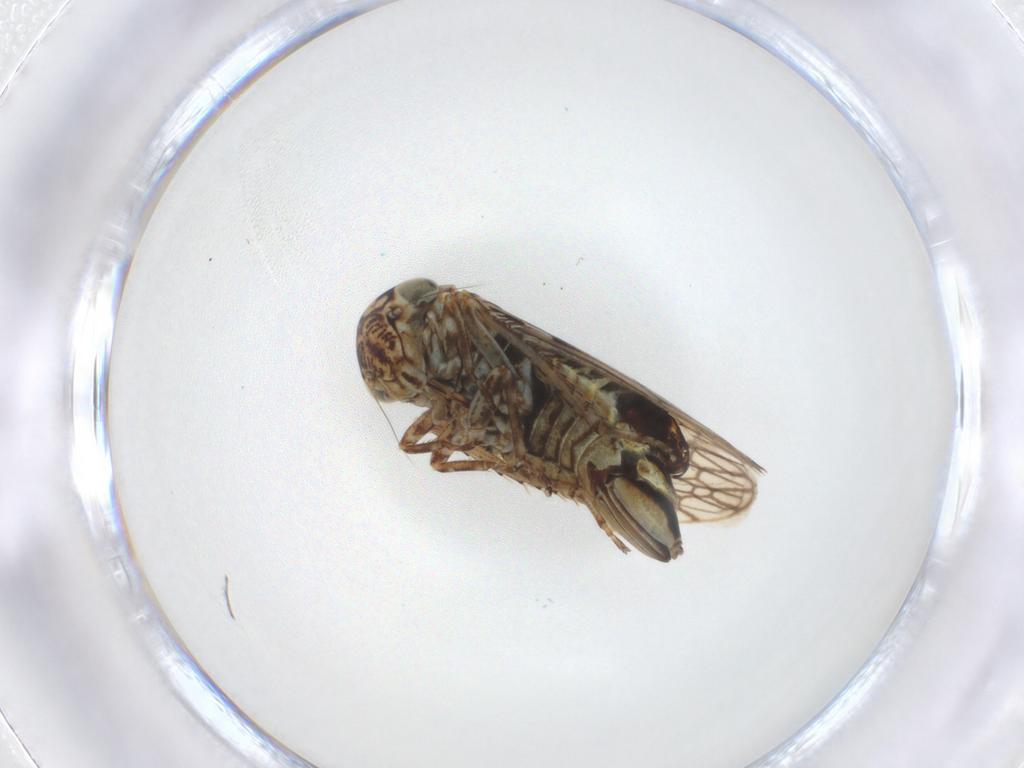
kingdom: Animalia
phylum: Arthropoda
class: Insecta
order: Hemiptera
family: Cicadellidae
